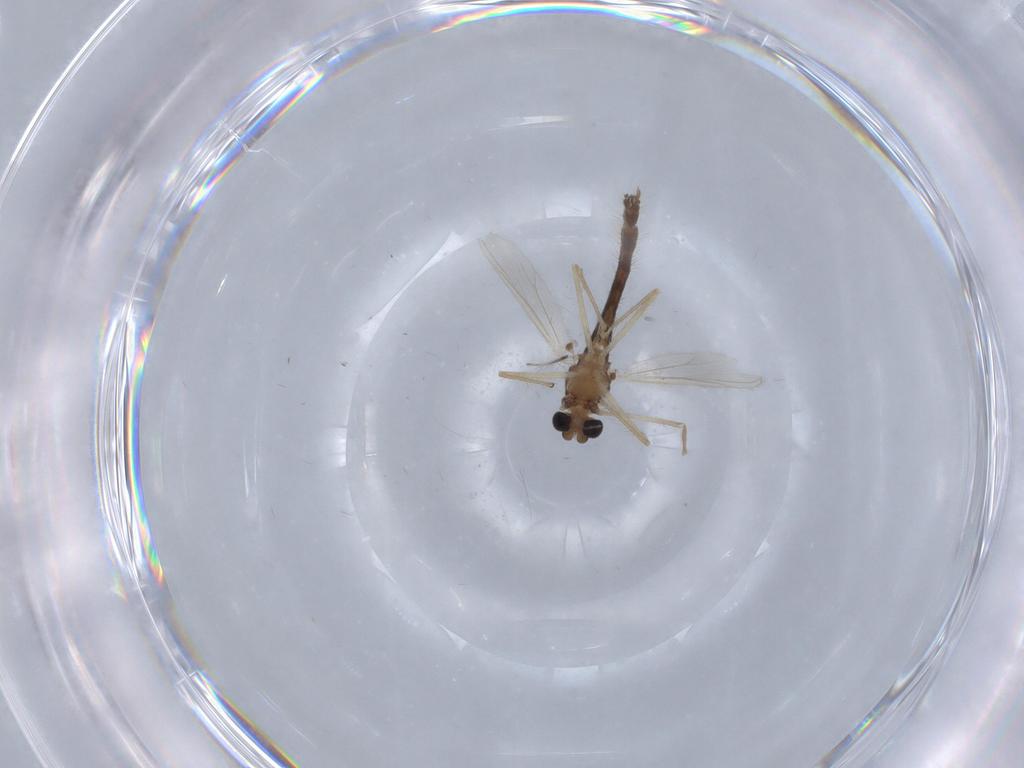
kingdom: Animalia
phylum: Arthropoda
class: Insecta
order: Diptera
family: Chironomidae
